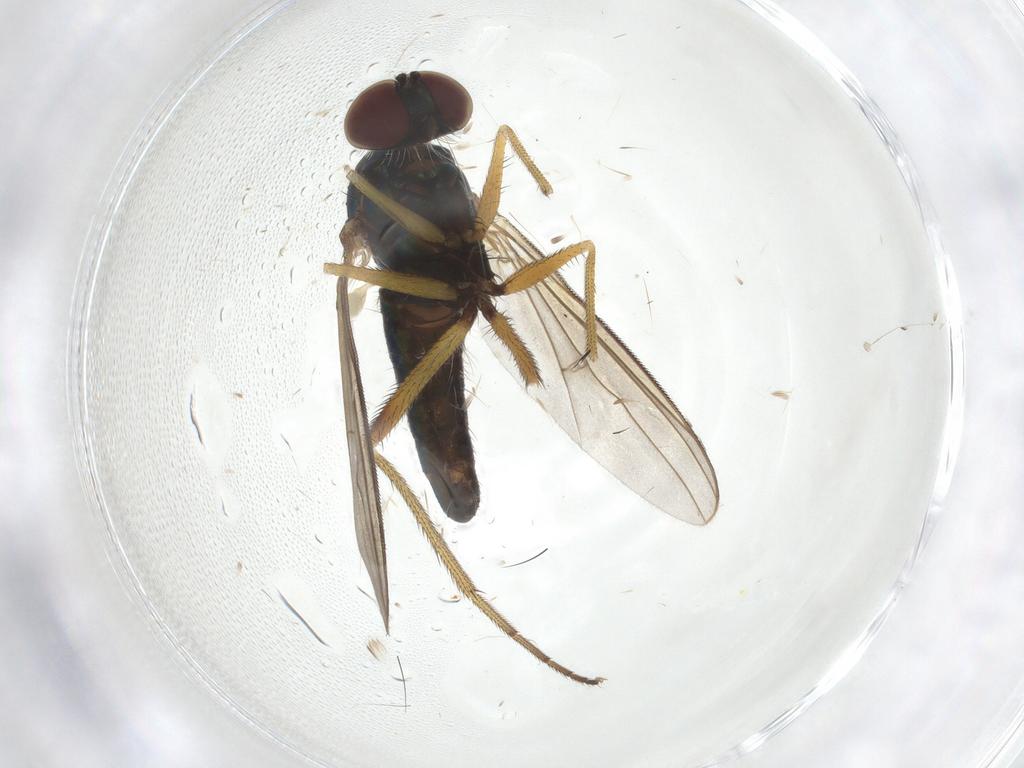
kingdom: Animalia
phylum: Arthropoda
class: Insecta
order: Diptera
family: Dolichopodidae
